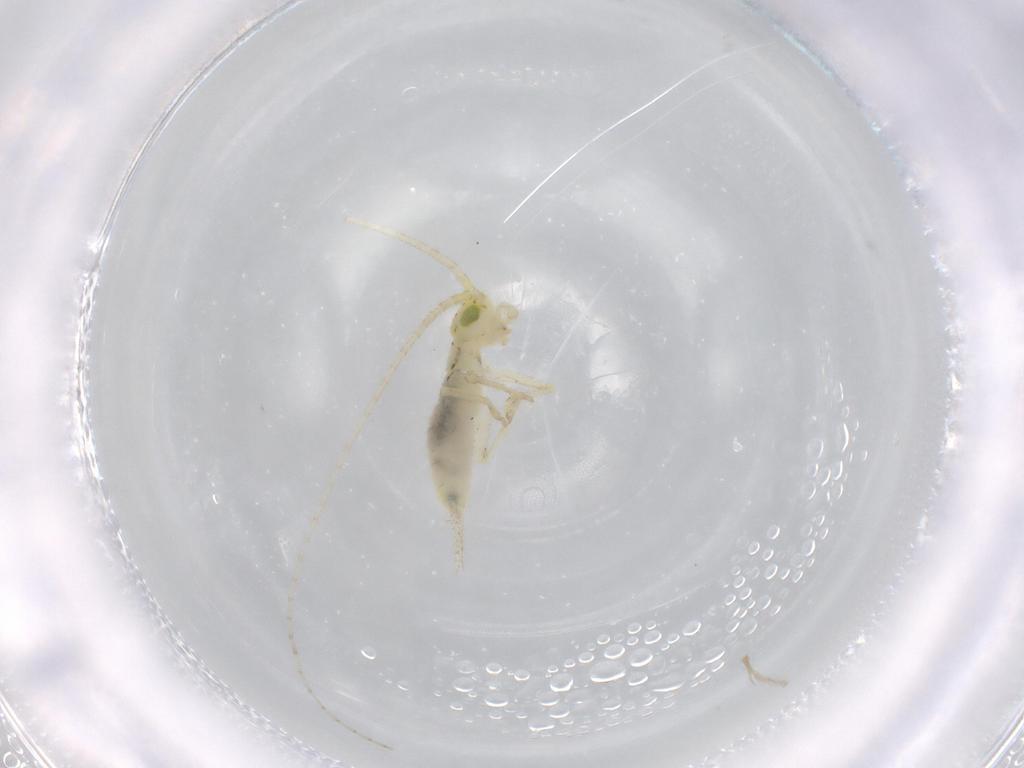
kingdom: Animalia
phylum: Arthropoda
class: Insecta
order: Orthoptera
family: Trigonidiidae
